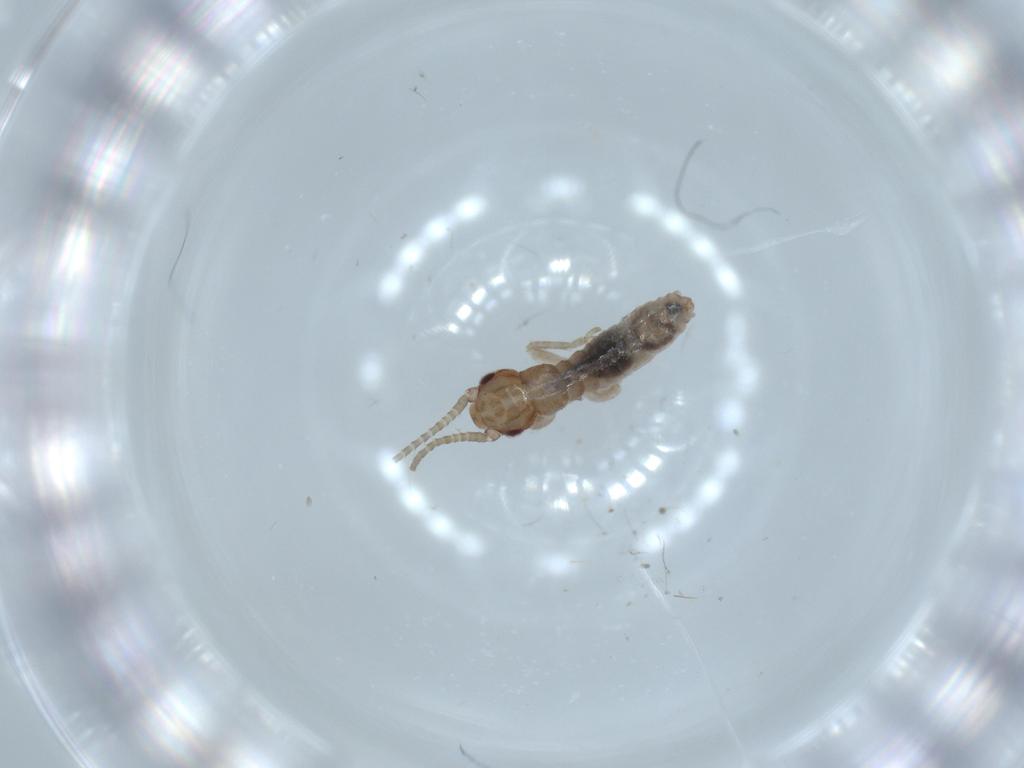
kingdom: Animalia
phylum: Arthropoda
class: Insecta
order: Orthoptera
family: Mogoplistidae
